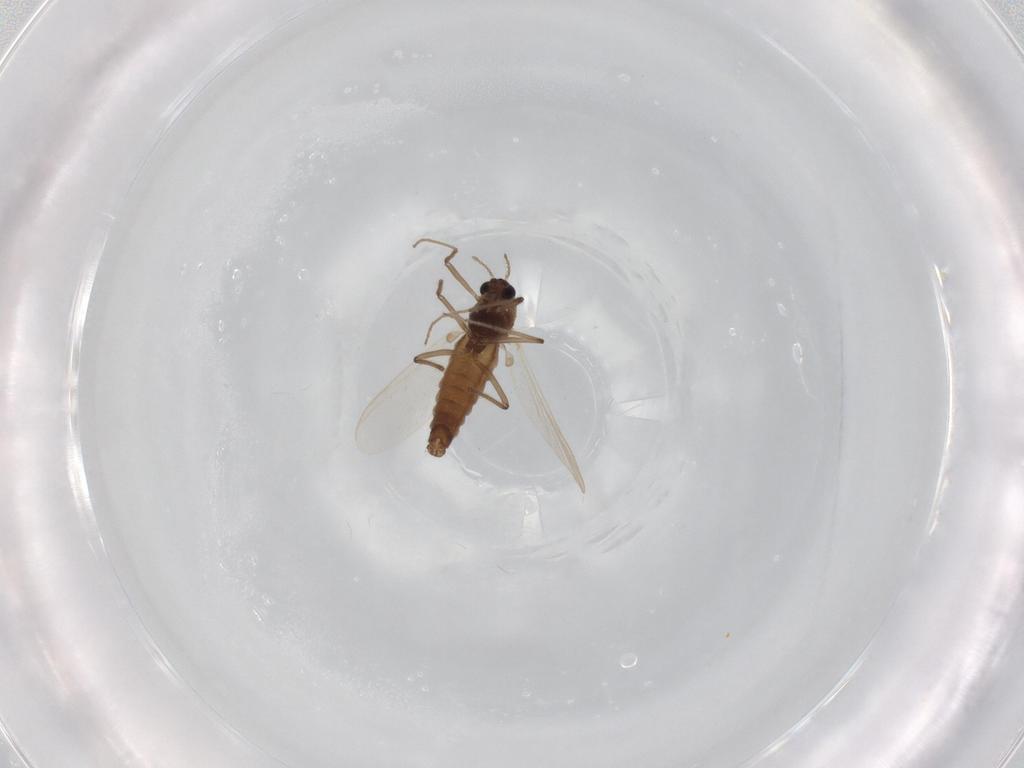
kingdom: Animalia
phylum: Arthropoda
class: Insecta
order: Diptera
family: Chironomidae
